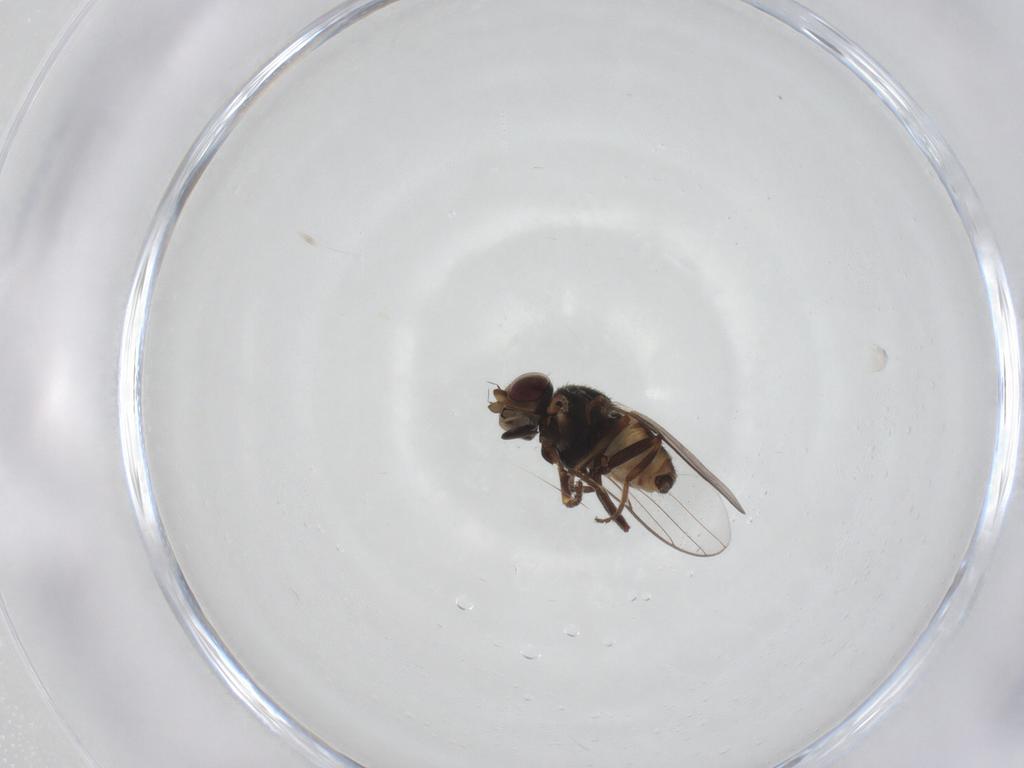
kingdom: Animalia
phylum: Arthropoda
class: Insecta
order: Diptera
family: Chloropidae
